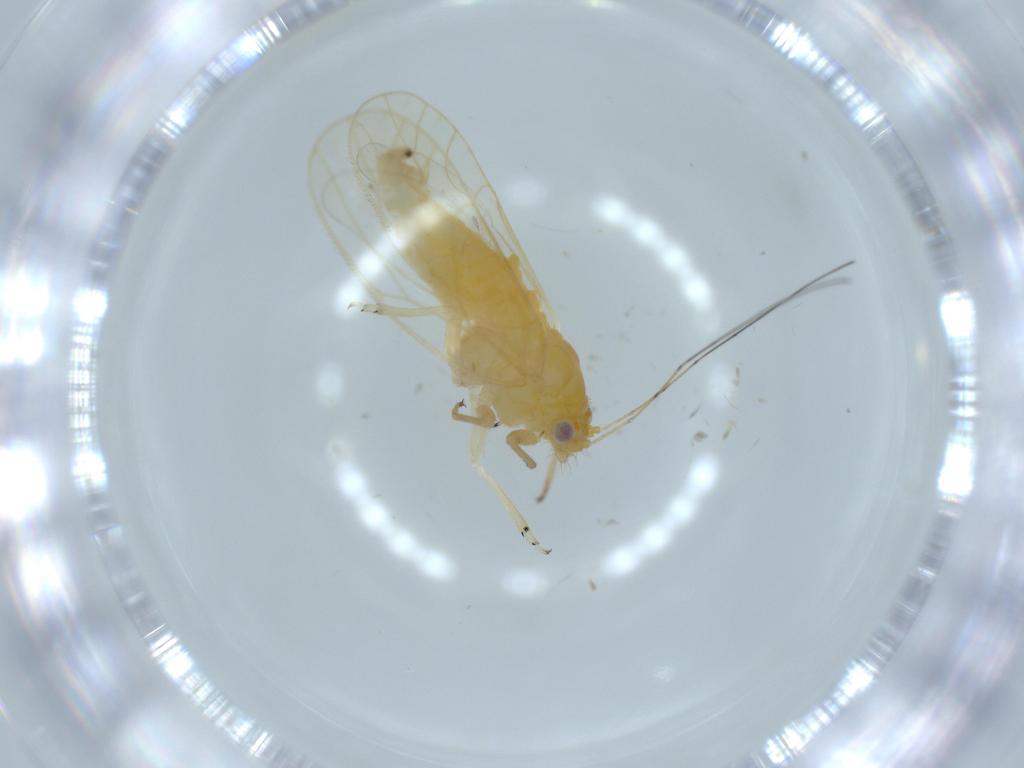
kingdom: Animalia
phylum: Arthropoda
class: Insecta
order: Hemiptera
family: Psyllidae
